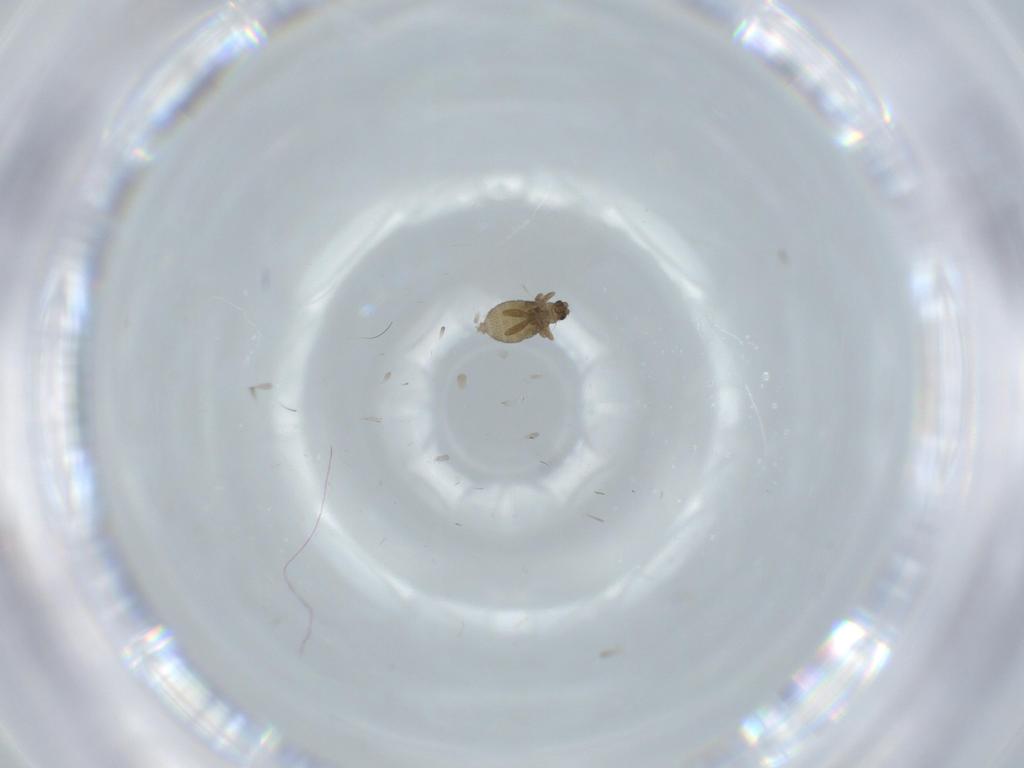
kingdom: Animalia
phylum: Arthropoda
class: Insecta
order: Diptera
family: Phoridae
